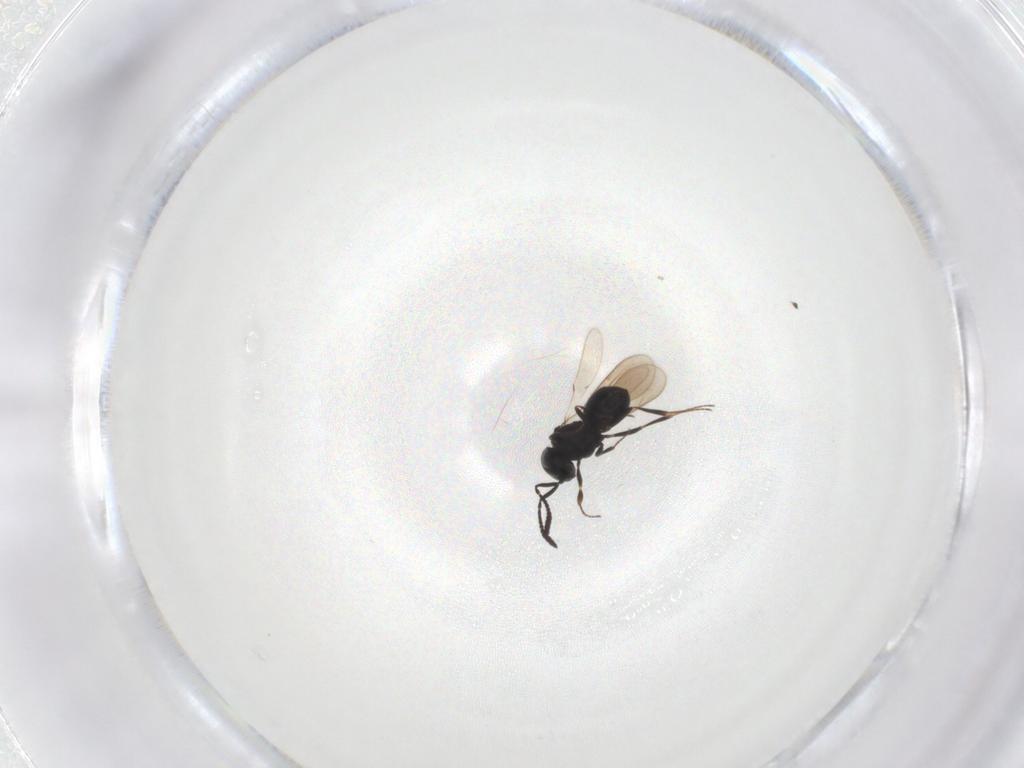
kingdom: Animalia
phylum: Arthropoda
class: Insecta
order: Hymenoptera
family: Scelionidae
